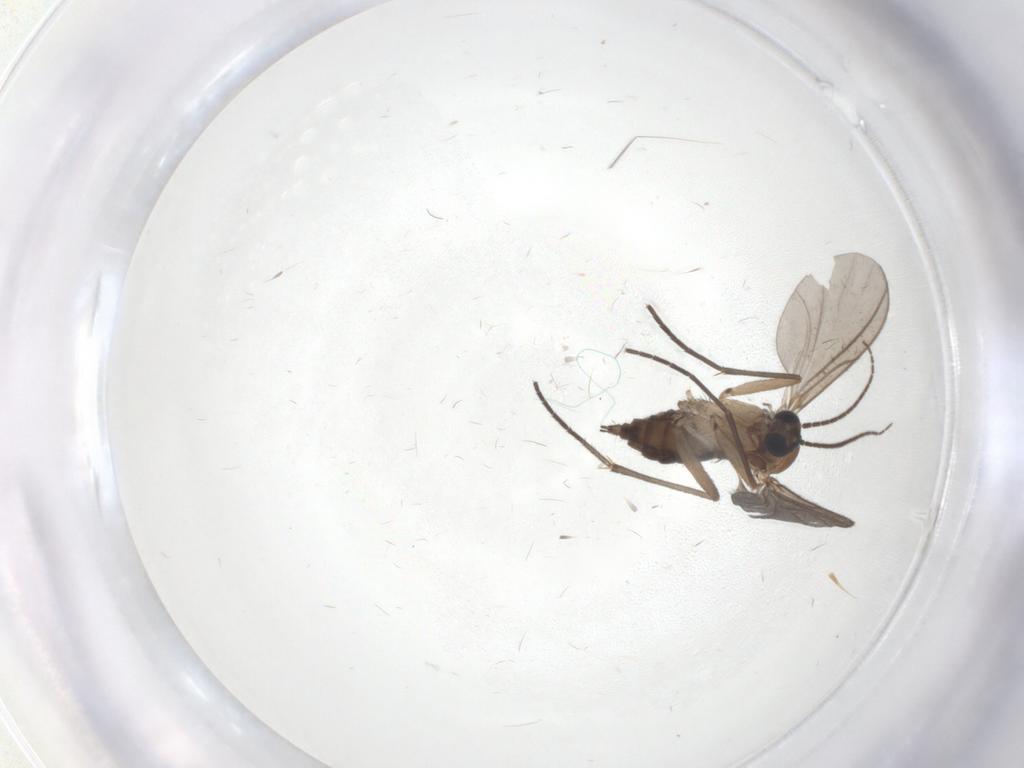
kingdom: Animalia
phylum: Arthropoda
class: Insecta
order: Diptera
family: Sciaridae
